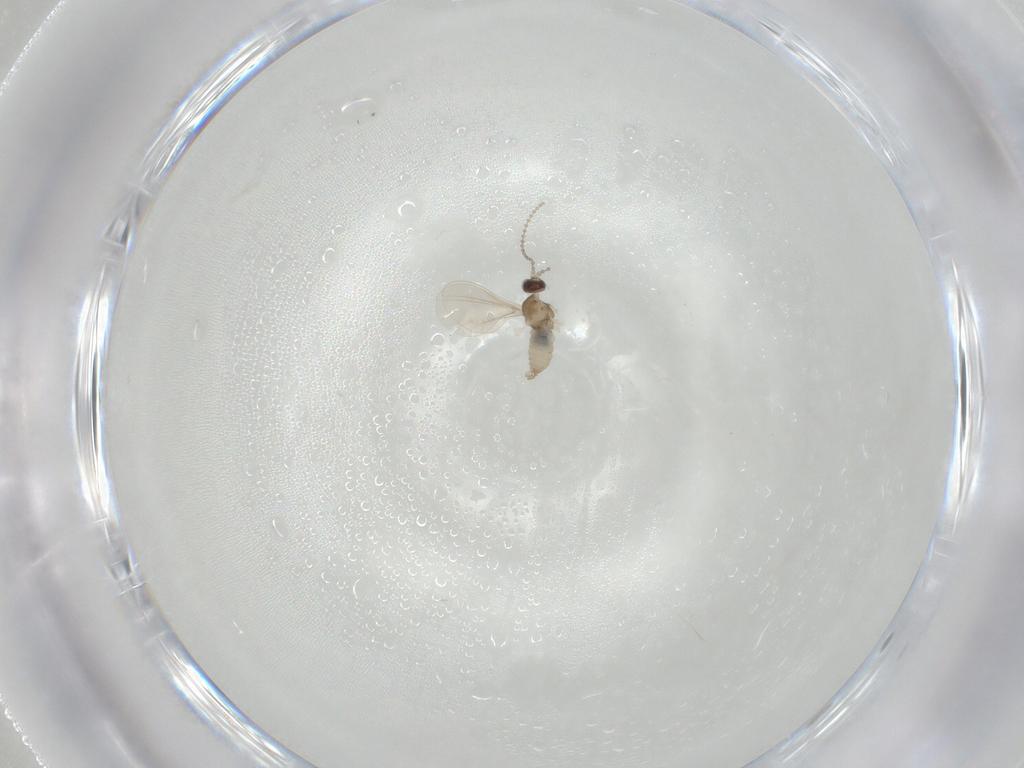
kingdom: Animalia
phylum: Arthropoda
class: Insecta
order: Diptera
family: Cecidomyiidae
